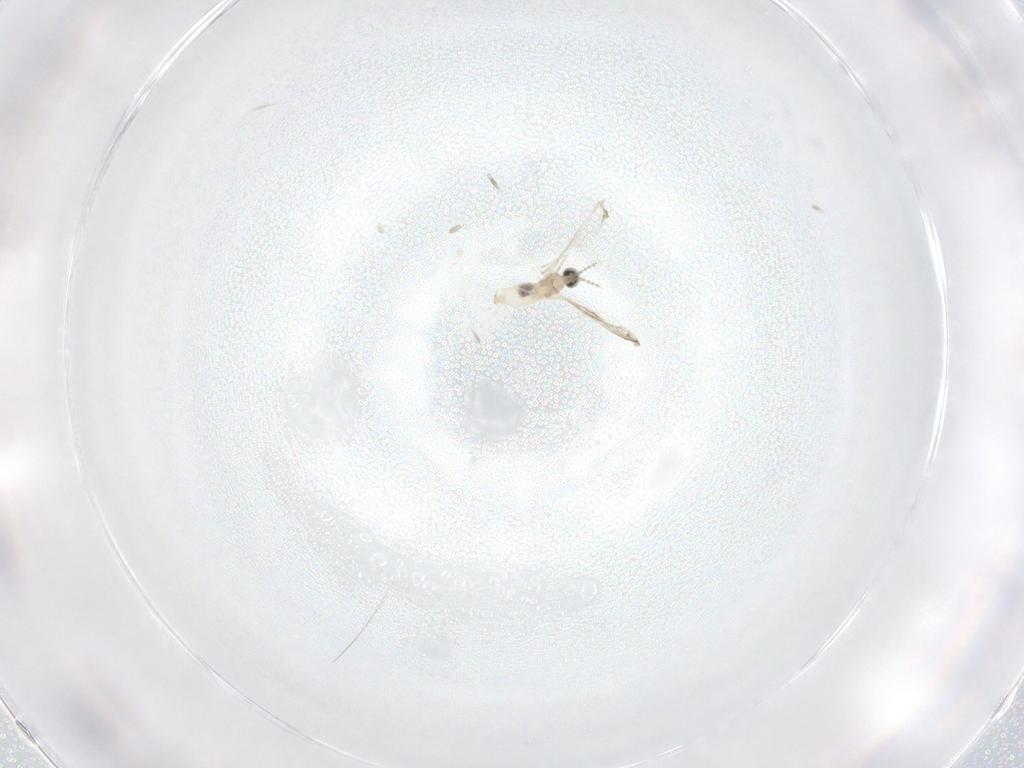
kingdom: Animalia
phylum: Arthropoda
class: Insecta
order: Diptera
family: Cecidomyiidae
